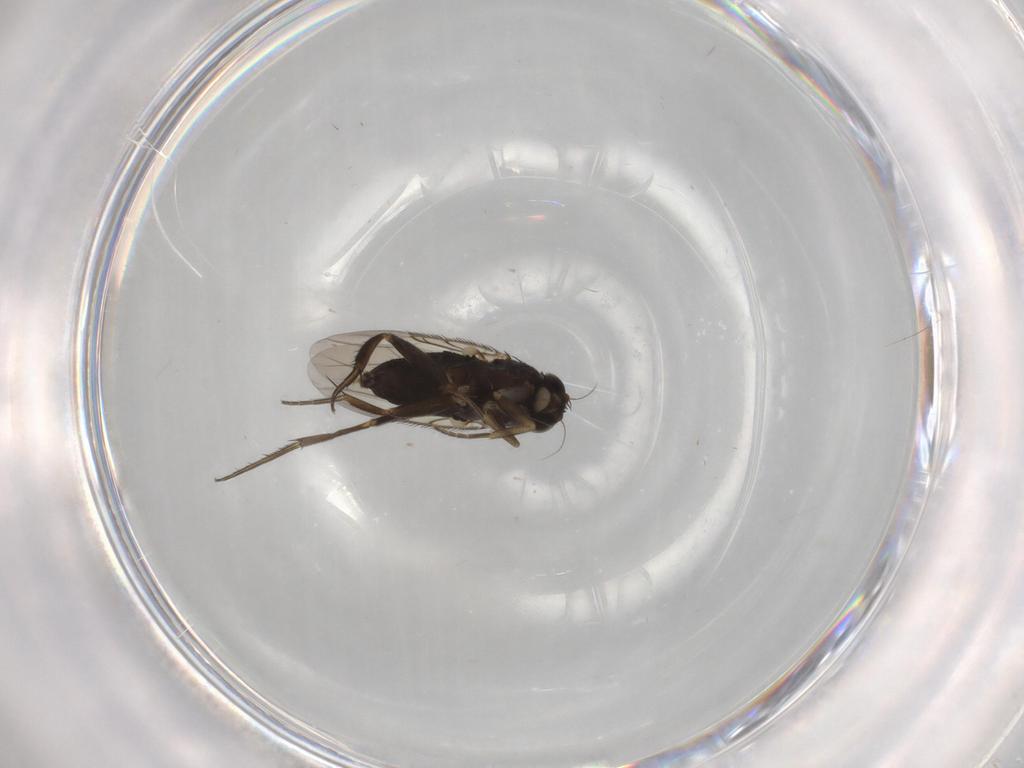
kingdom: Animalia
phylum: Arthropoda
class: Insecta
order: Diptera
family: Phoridae
